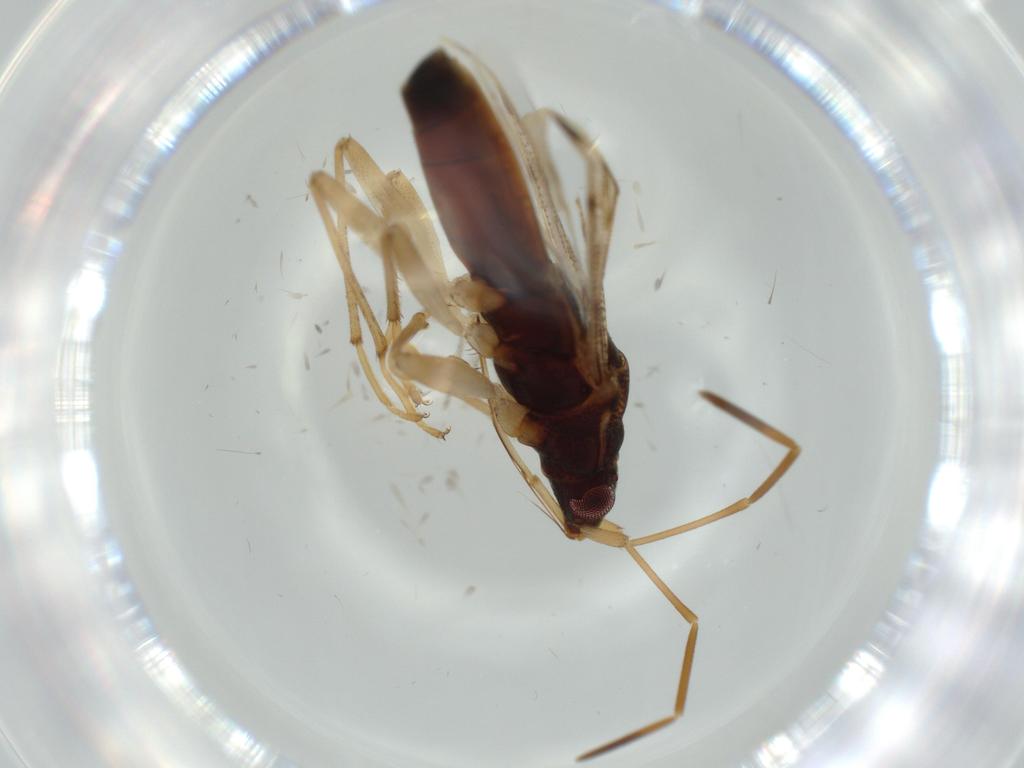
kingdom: Animalia
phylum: Arthropoda
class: Insecta
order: Hemiptera
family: Rhyparochromidae
